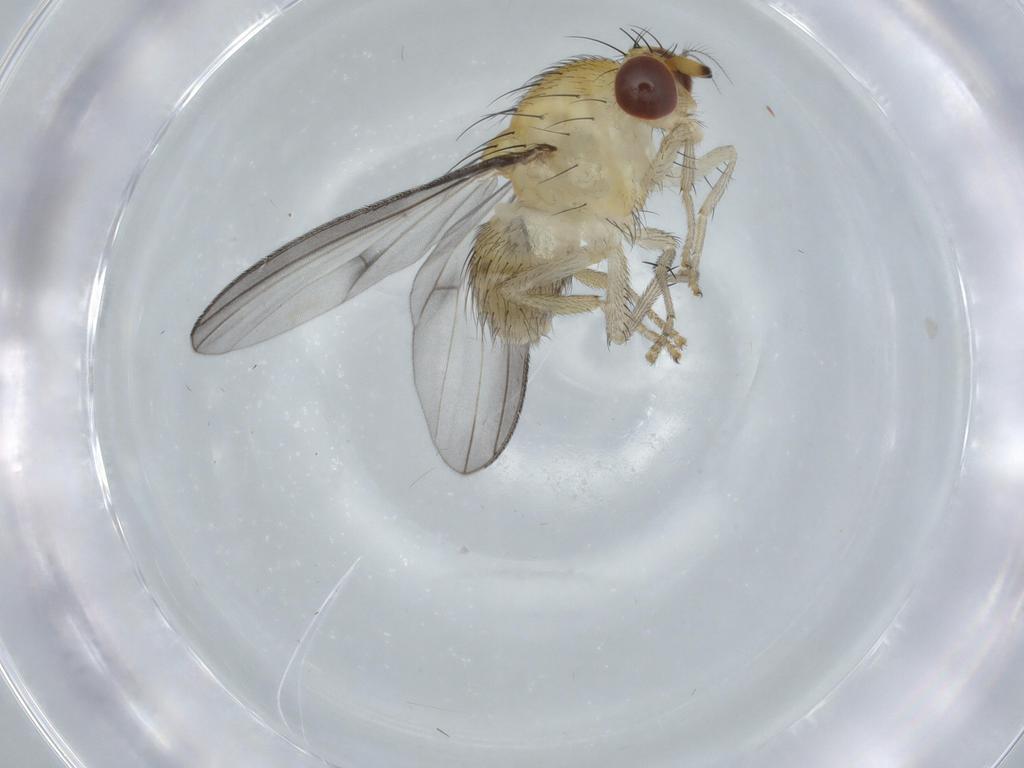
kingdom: Animalia
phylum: Arthropoda
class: Insecta
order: Diptera
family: Lauxaniidae
